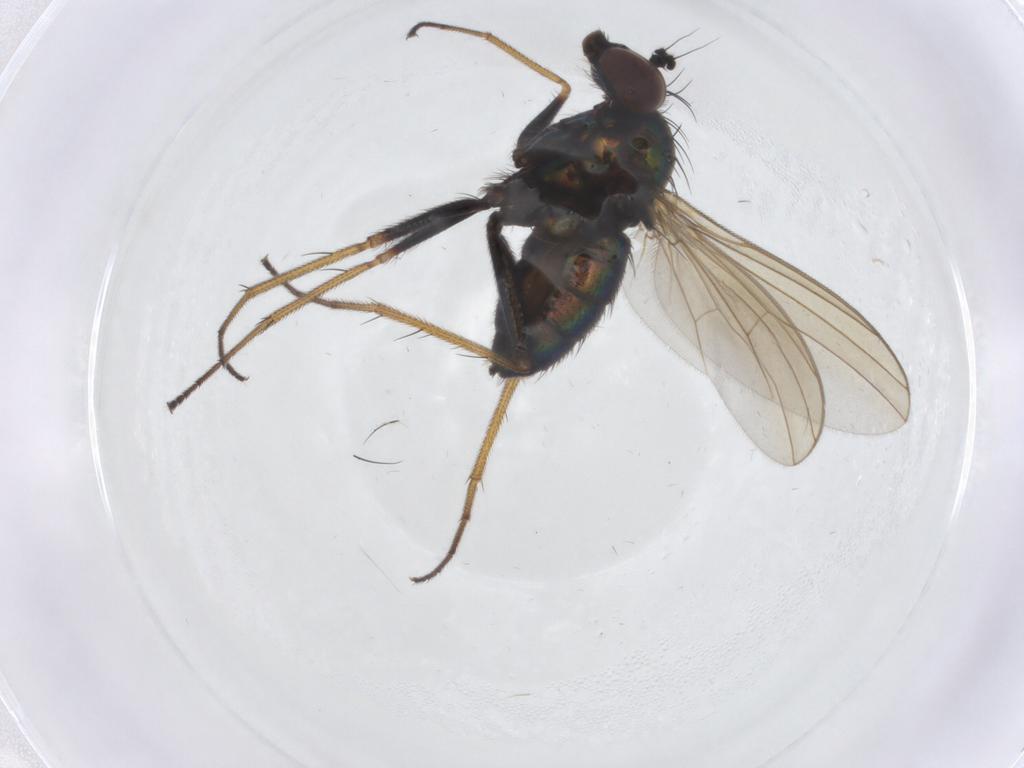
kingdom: Animalia
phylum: Arthropoda
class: Insecta
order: Diptera
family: Dolichopodidae
